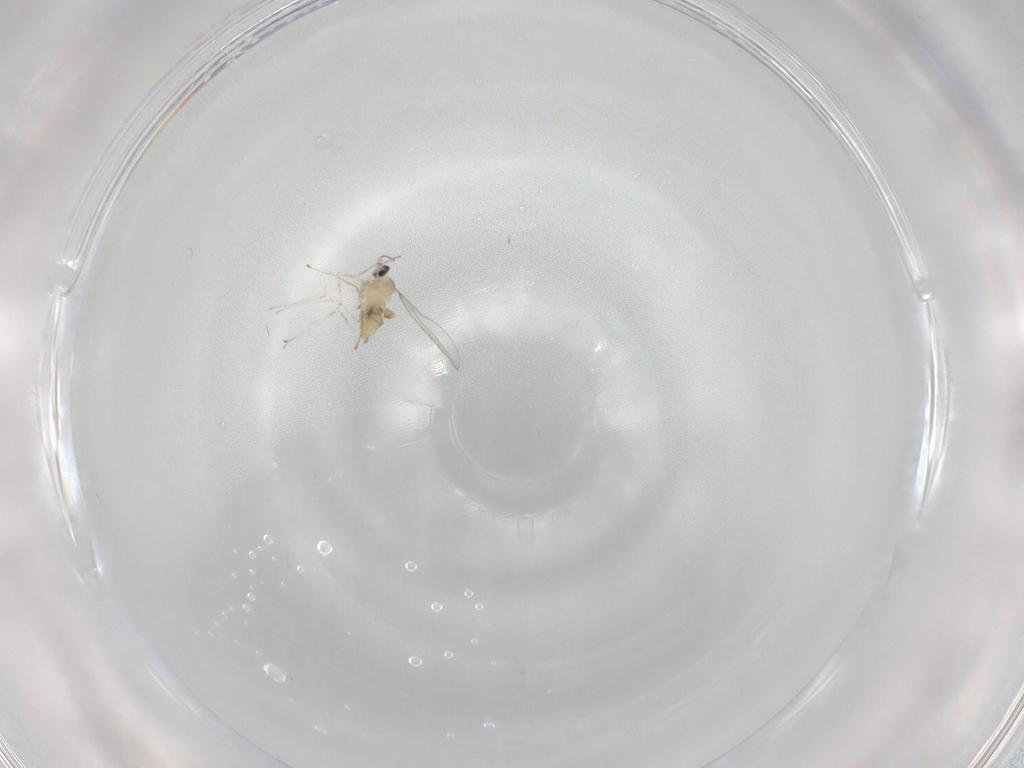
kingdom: Animalia
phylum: Arthropoda
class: Insecta
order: Diptera
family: Cecidomyiidae
